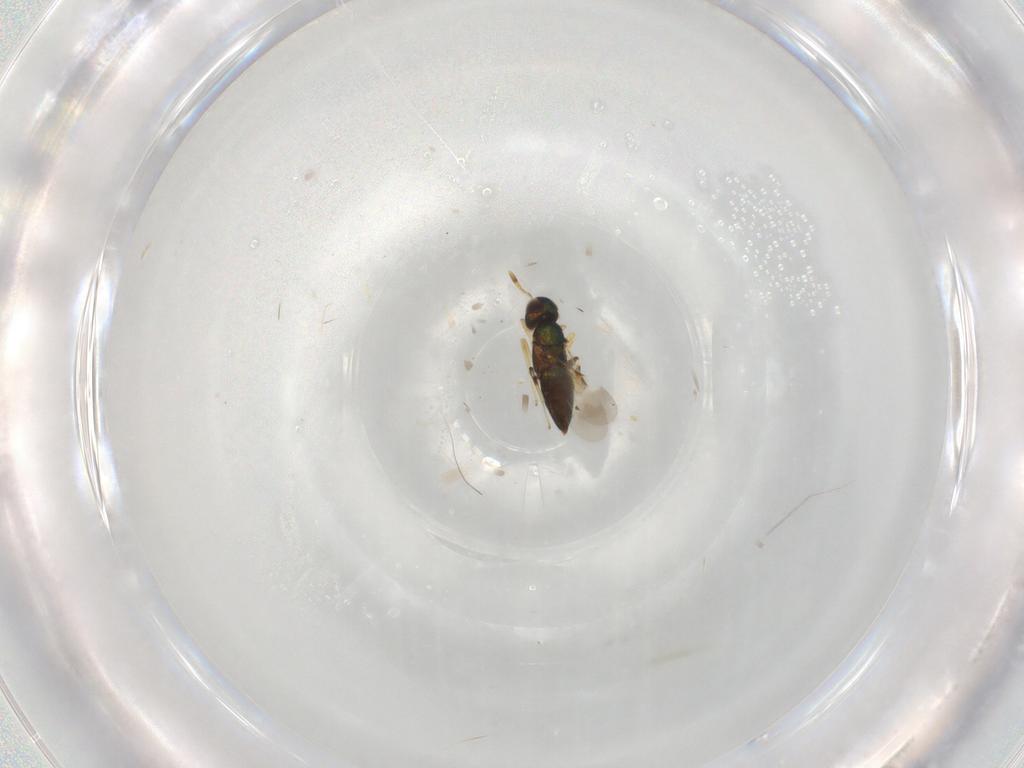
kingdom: Animalia
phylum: Arthropoda
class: Insecta
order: Hymenoptera
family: Encyrtidae
